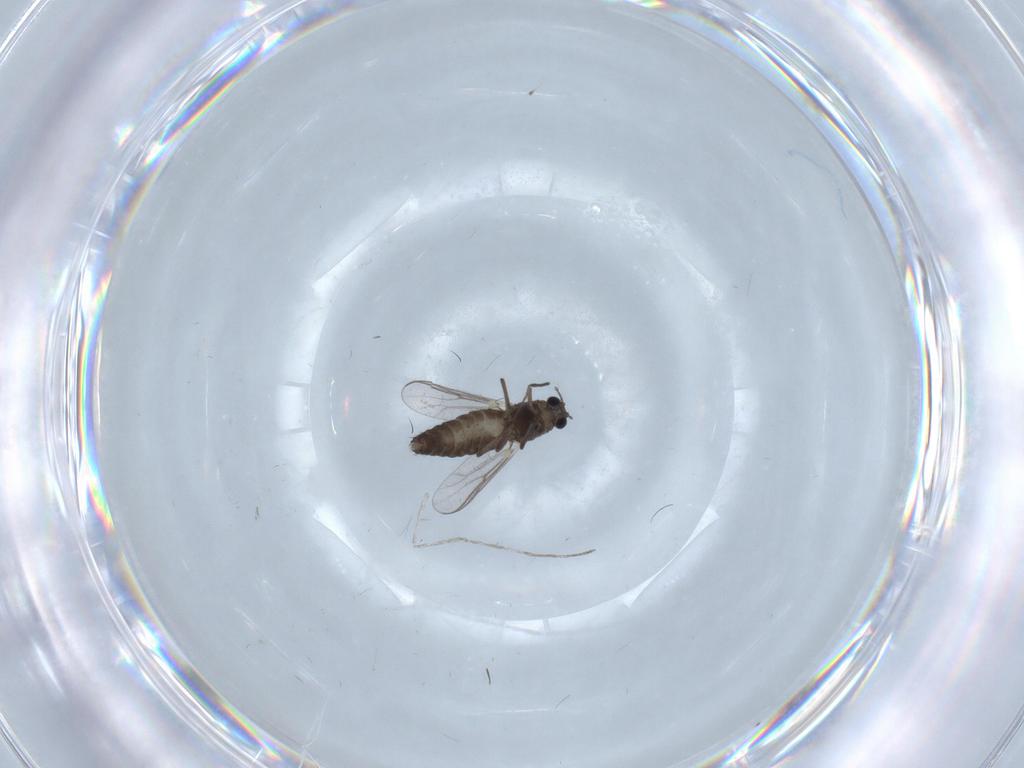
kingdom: Animalia
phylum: Arthropoda
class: Insecta
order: Diptera
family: Chironomidae
